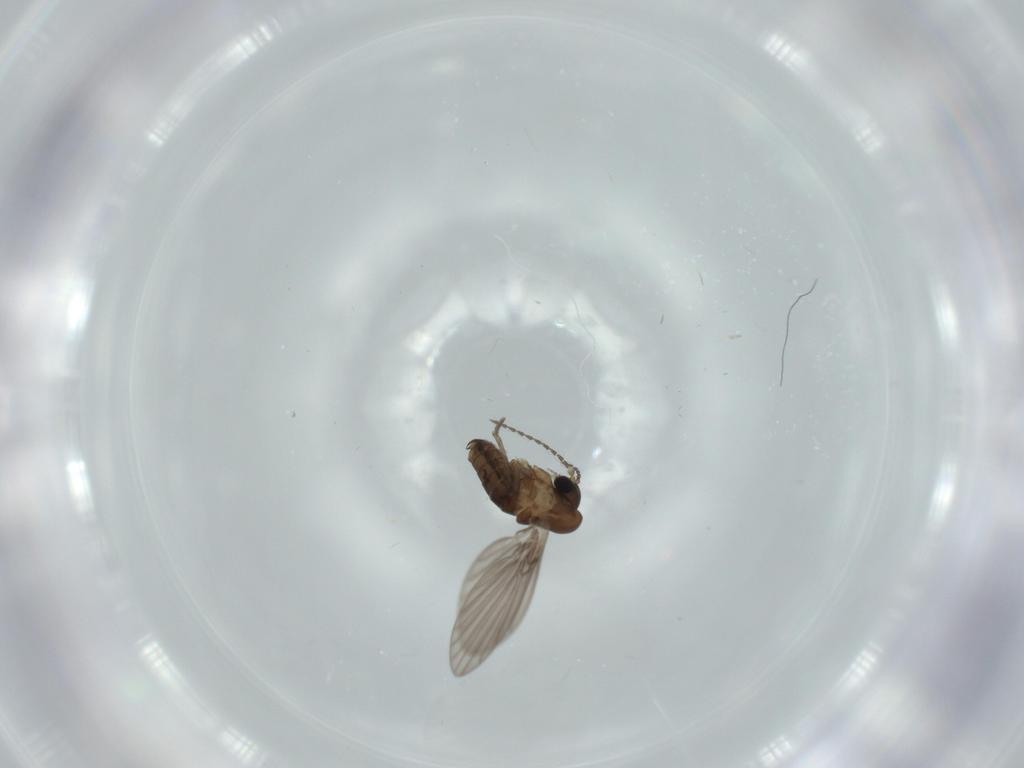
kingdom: Animalia
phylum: Arthropoda
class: Insecta
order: Diptera
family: Psychodidae
